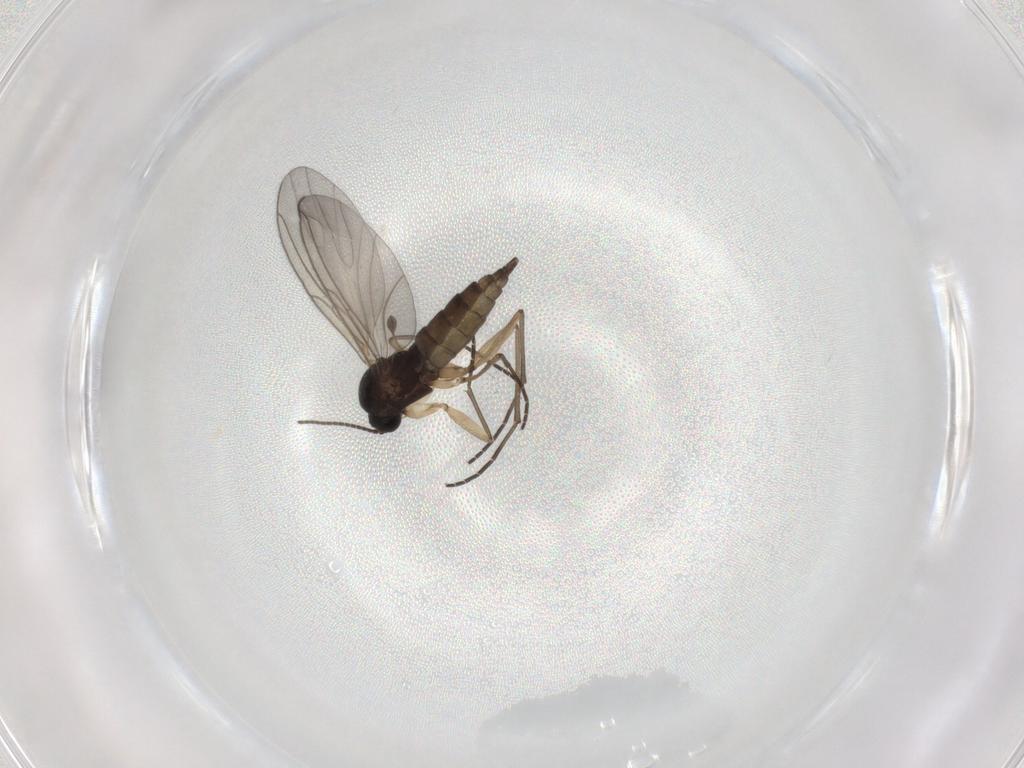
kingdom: Animalia
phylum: Arthropoda
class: Insecta
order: Diptera
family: Sciaridae
